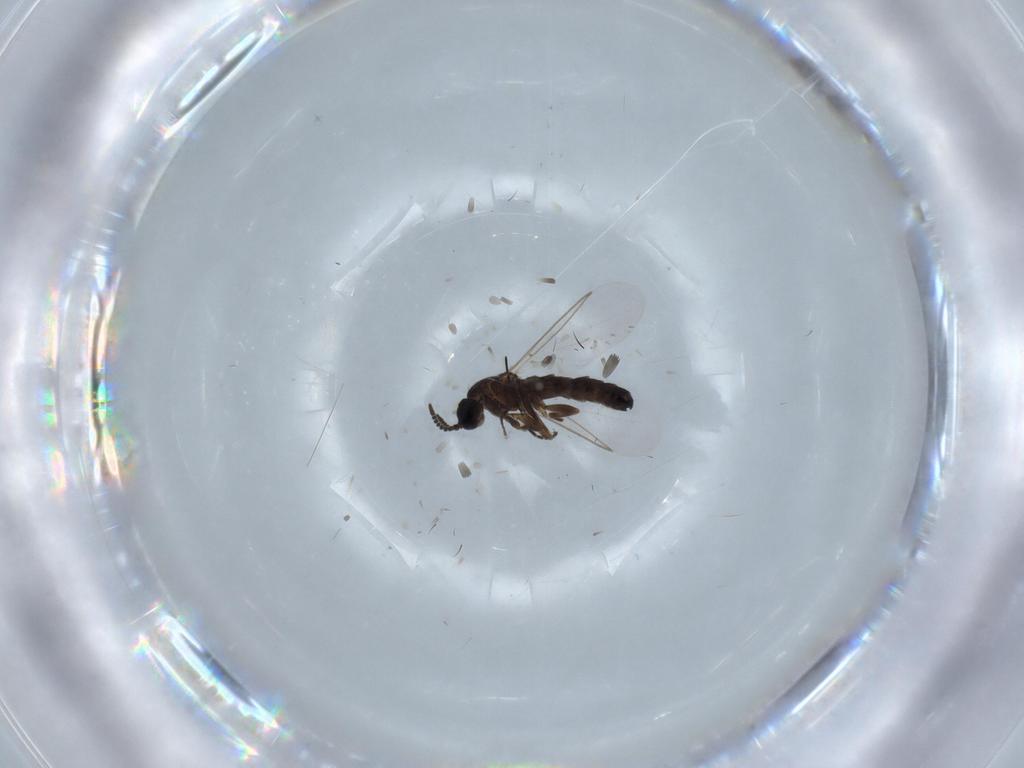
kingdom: Animalia
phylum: Arthropoda
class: Insecta
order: Diptera
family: Scatopsidae
